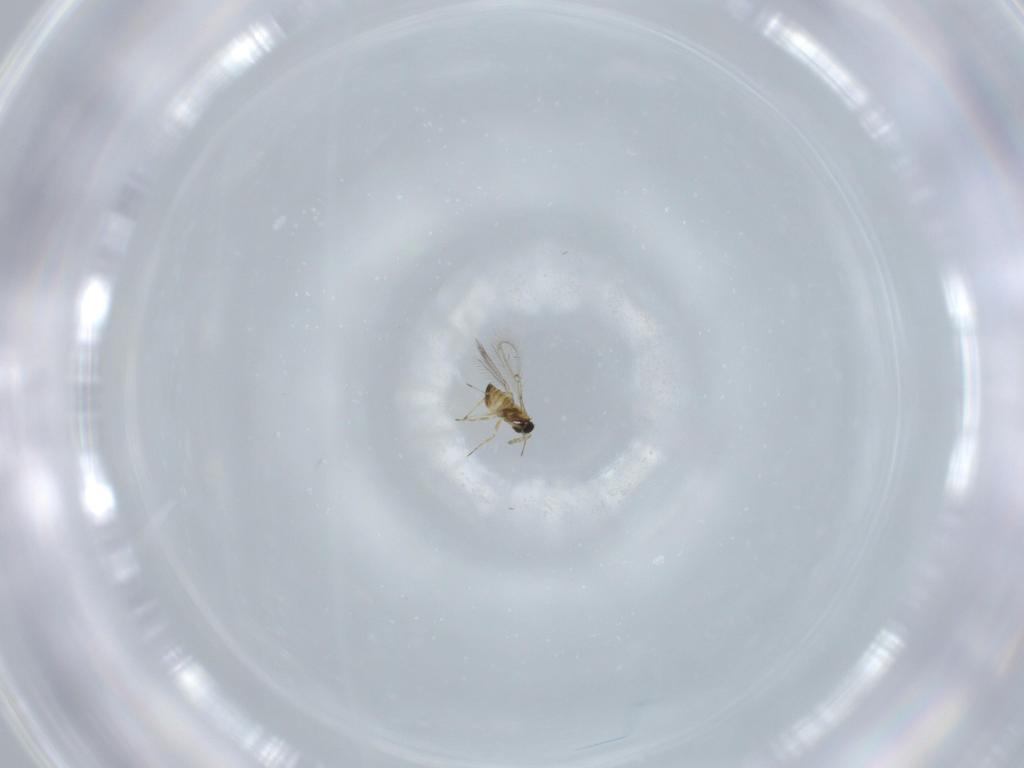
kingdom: Animalia
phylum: Arthropoda
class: Insecta
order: Hymenoptera
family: Trichogrammatidae
